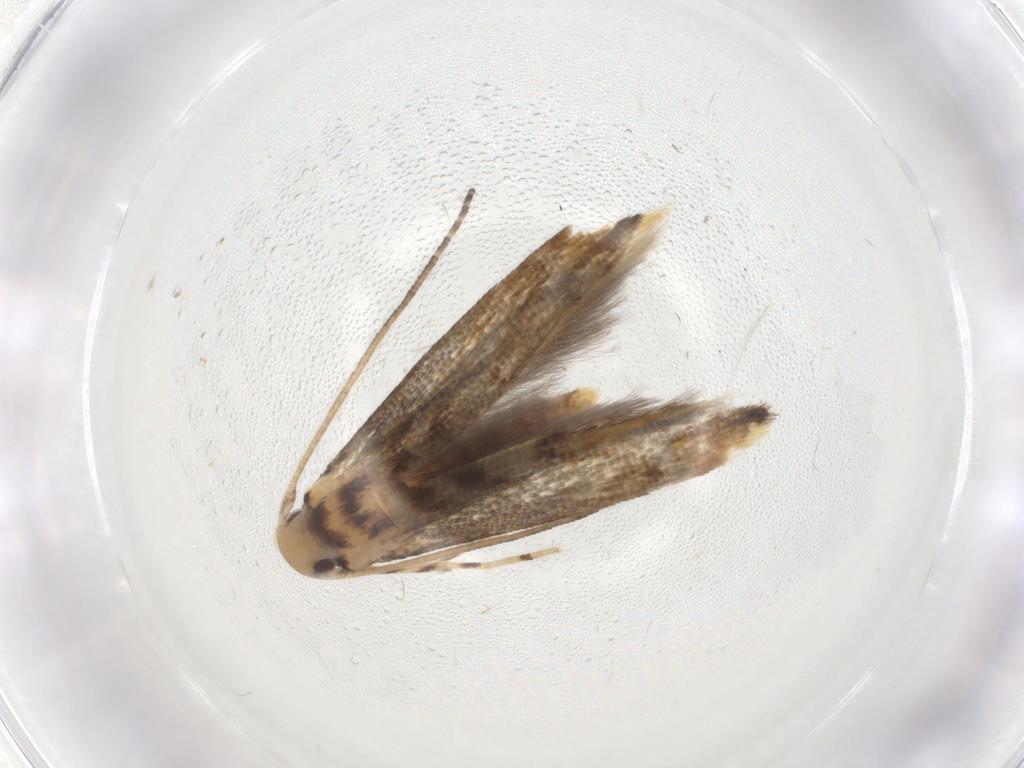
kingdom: Animalia
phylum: Arthropoda
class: Insecta
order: Lepidoptera
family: Momphidae
